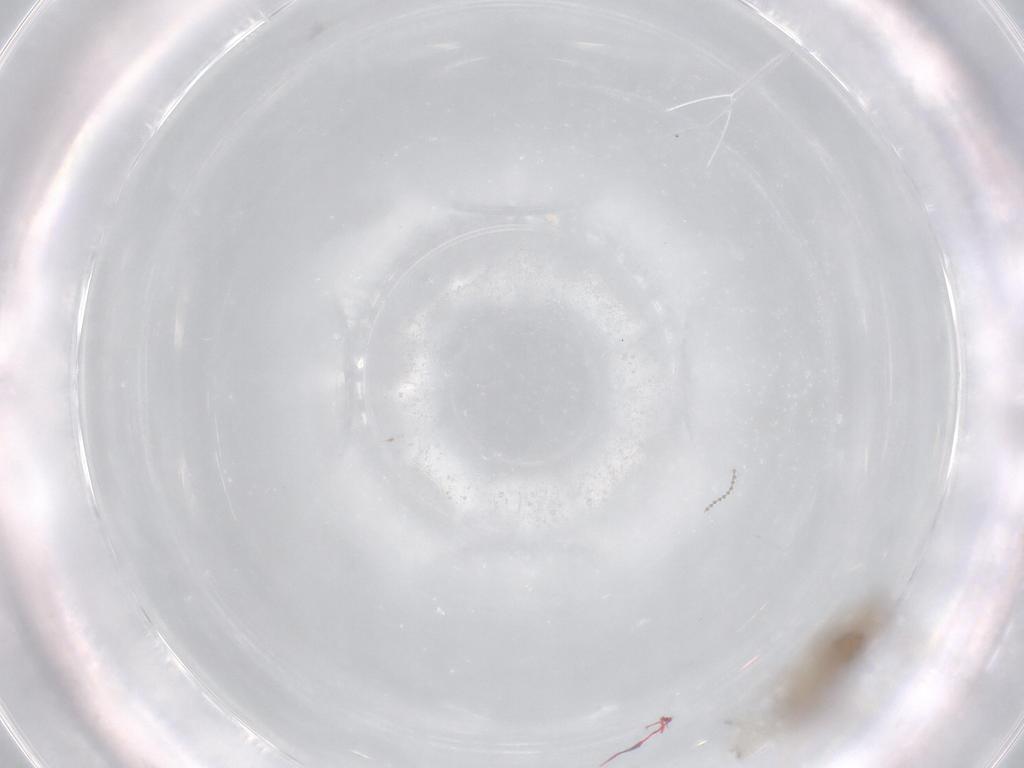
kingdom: Animalia
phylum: Arthropoda
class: Insecta
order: Diptera
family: Cecidomyiidae
